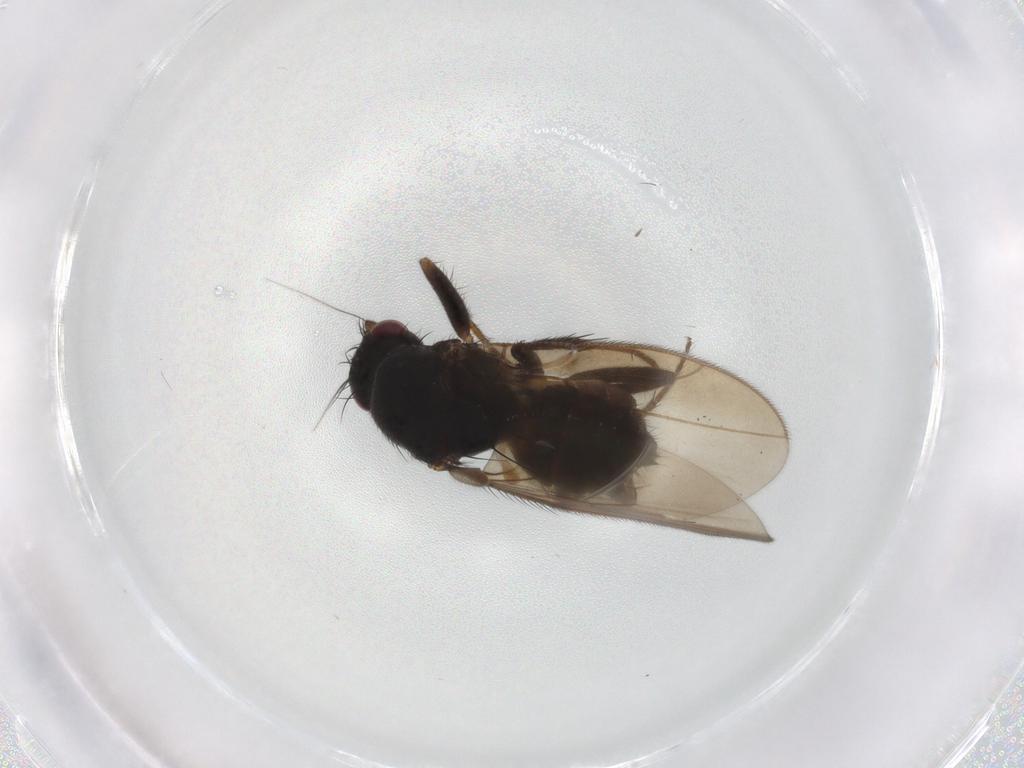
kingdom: Animalia
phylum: Arthropoda
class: Insecta
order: Diptera
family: Sphaeroceridae
